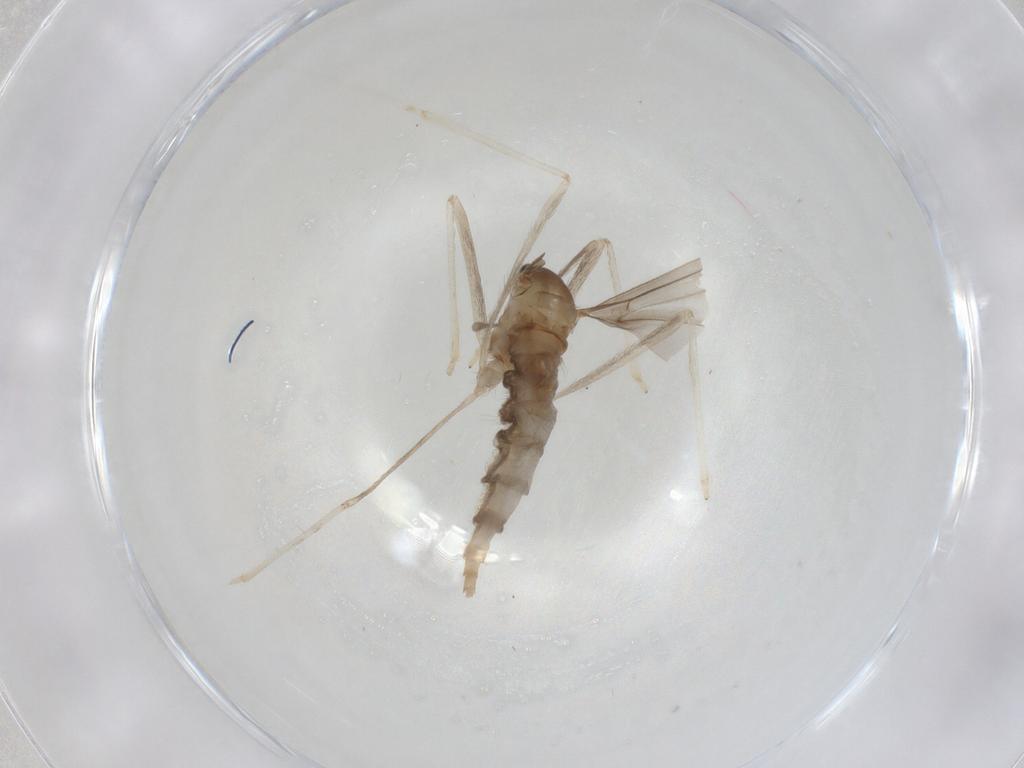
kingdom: Animalia
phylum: Arthropoda
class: Insecta
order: Diptera
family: Cecidomyiidae
